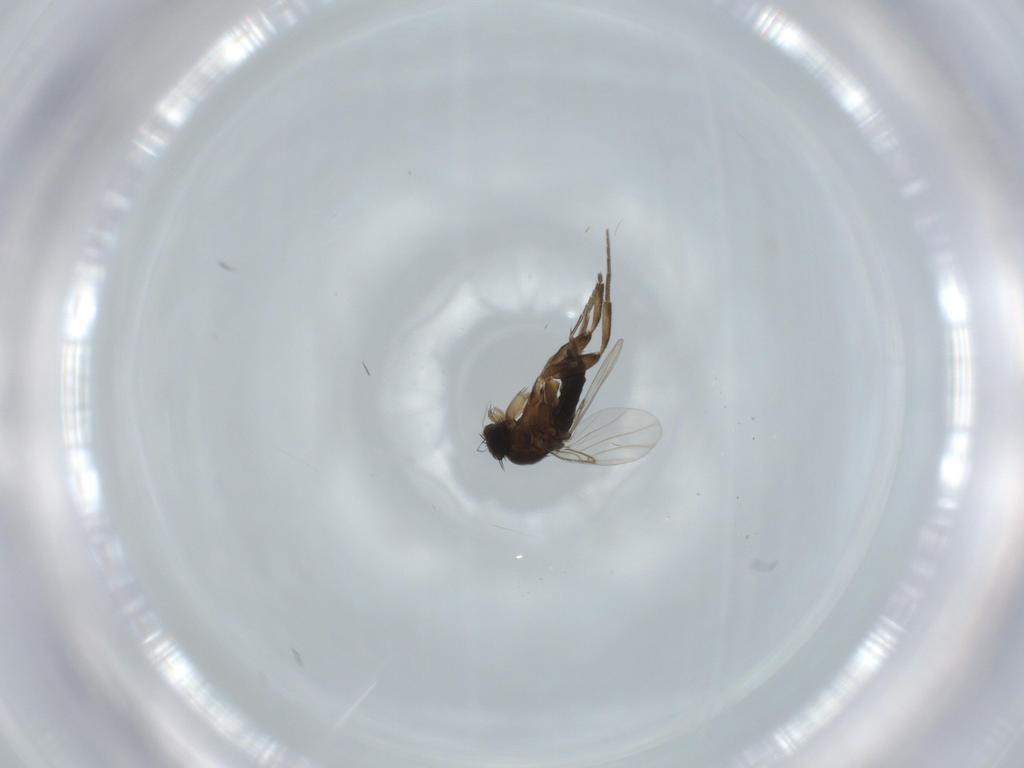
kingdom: Animalia
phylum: Arthropoda
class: Insecta
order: Diptera
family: Phoridae
